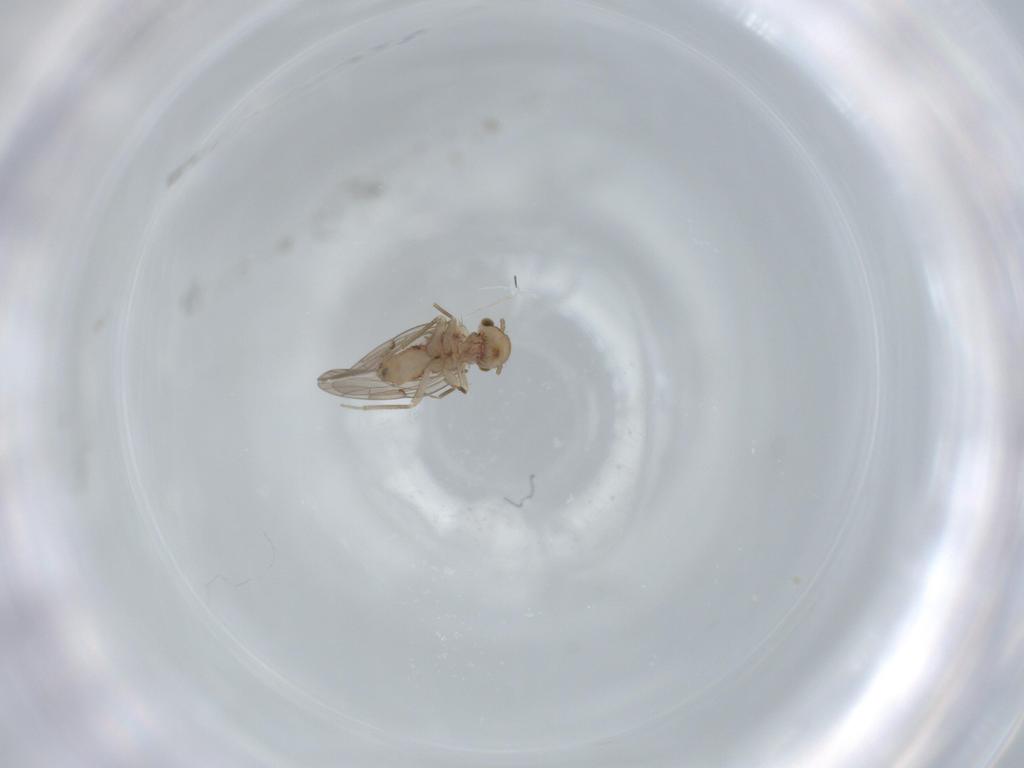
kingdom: Animalia
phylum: Arthropoda
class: Insecta
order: Psocodea
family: Ectopsocidae
